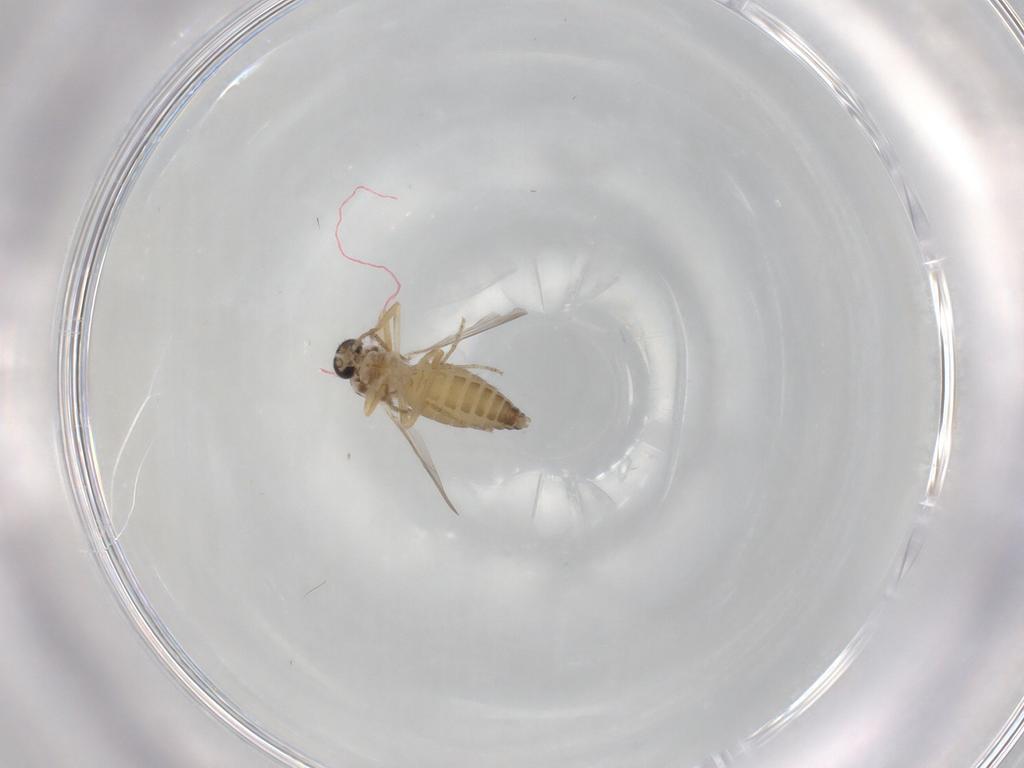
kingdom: Animalia
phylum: Arthropoda
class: Insecta
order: Diptera
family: Ceratopogonidae
